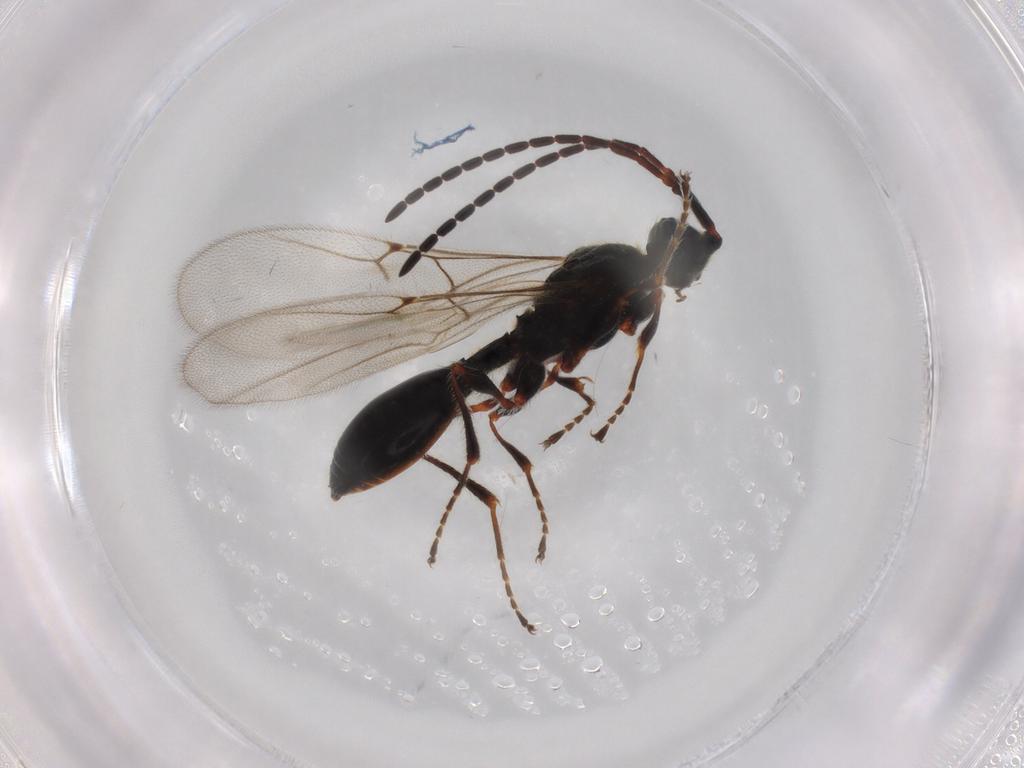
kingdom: Animalia
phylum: Arthropoda
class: Insecta
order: Hymenoptera
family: Diapriidae
